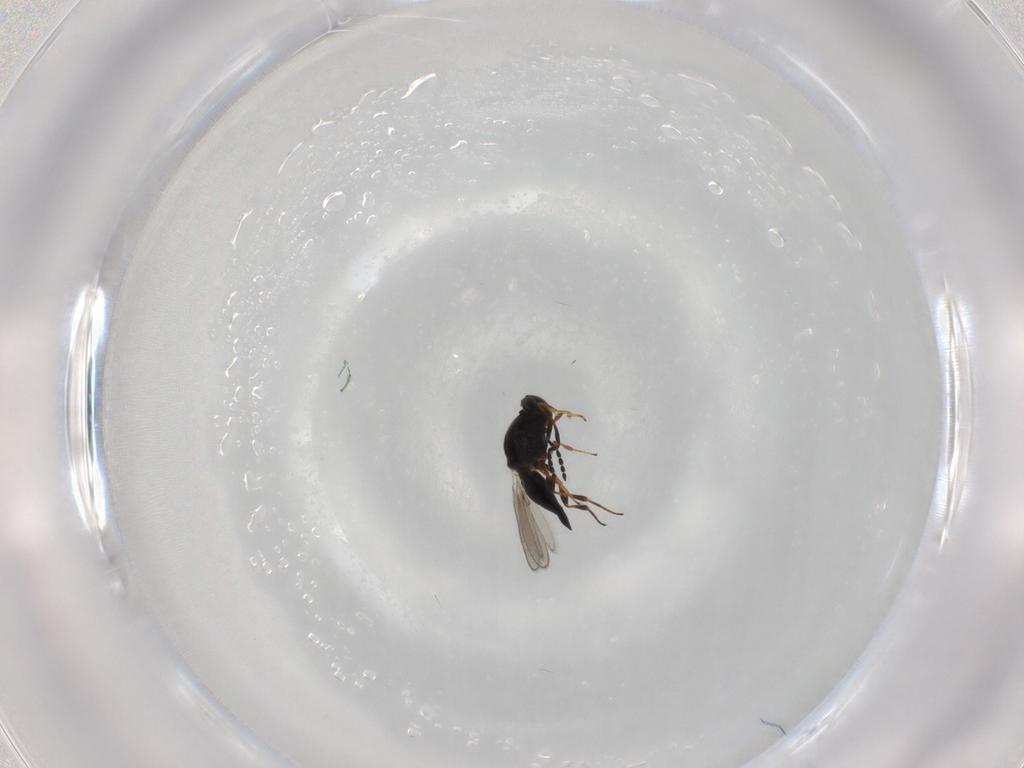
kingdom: Animalia
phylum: Arthropoda
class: Insecta
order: Hymenoptera
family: Platygastridae
